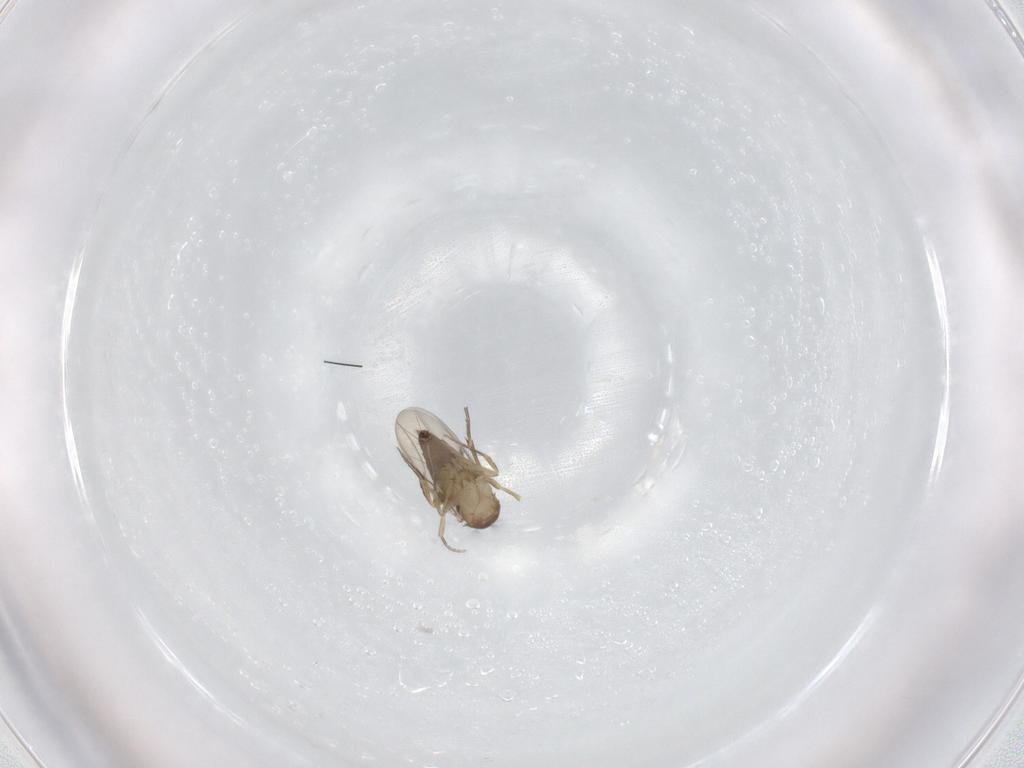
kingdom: Animalia
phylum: Arthropoda
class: Insecta
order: Diptera
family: Phoridae
